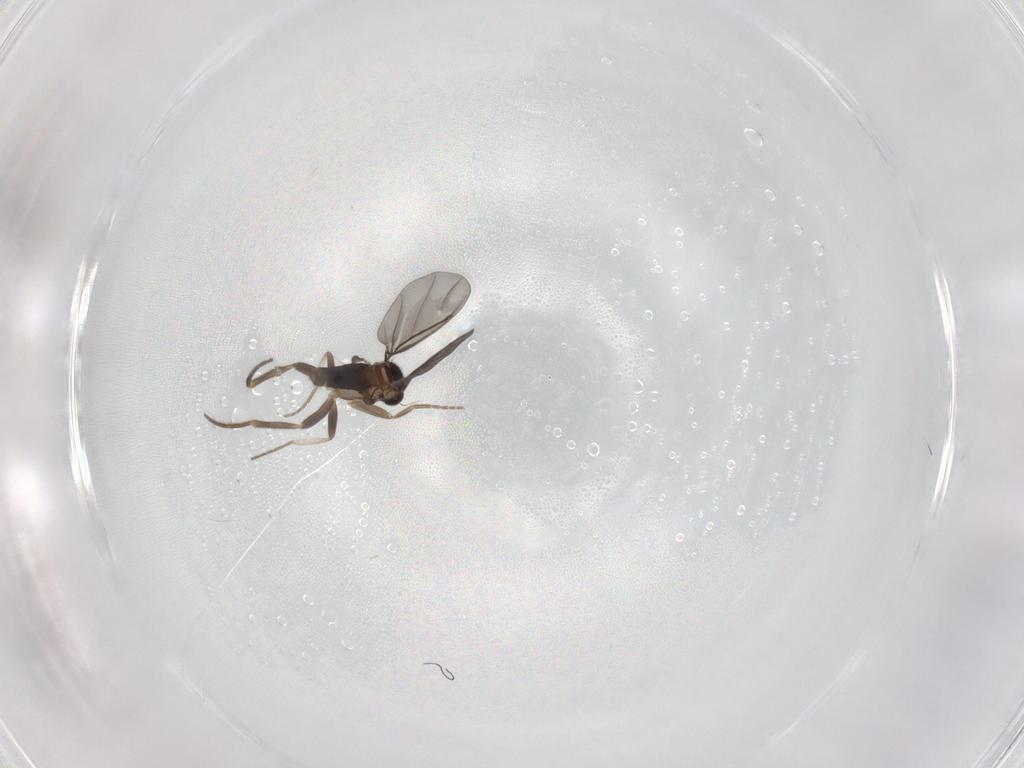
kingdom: Animalia
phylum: Arthropoda
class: Insecta
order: Diptera
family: Phoridae
